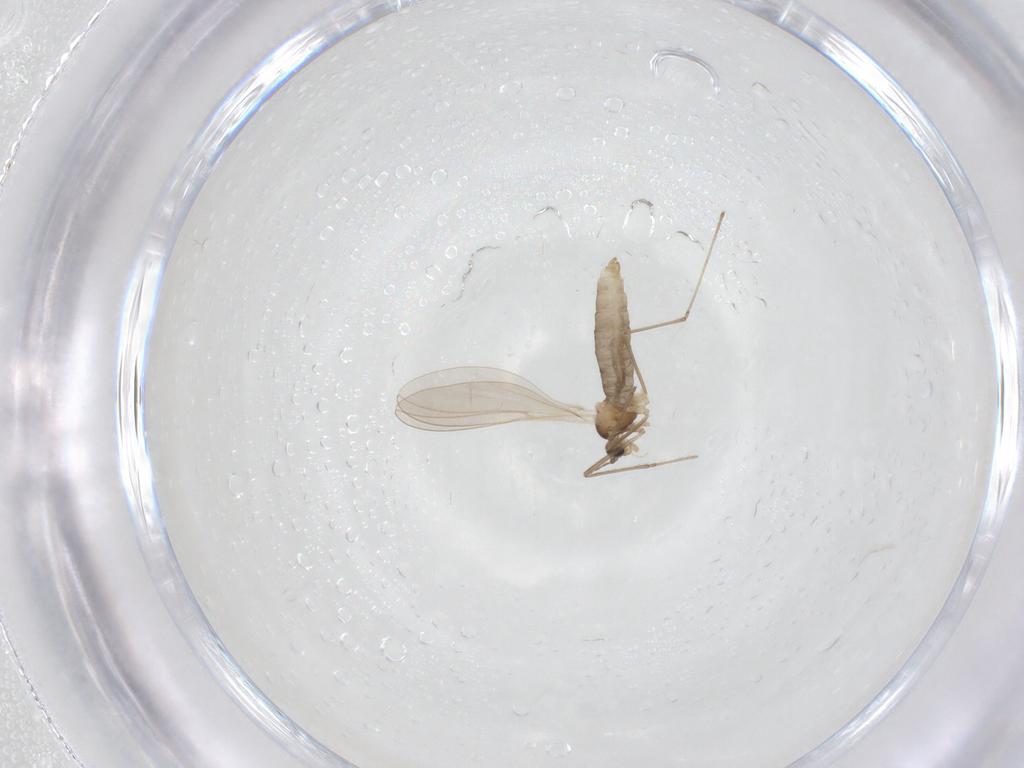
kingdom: Animalia
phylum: Arthropoda
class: Insecta
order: Diptera
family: Cecidomyiidae
